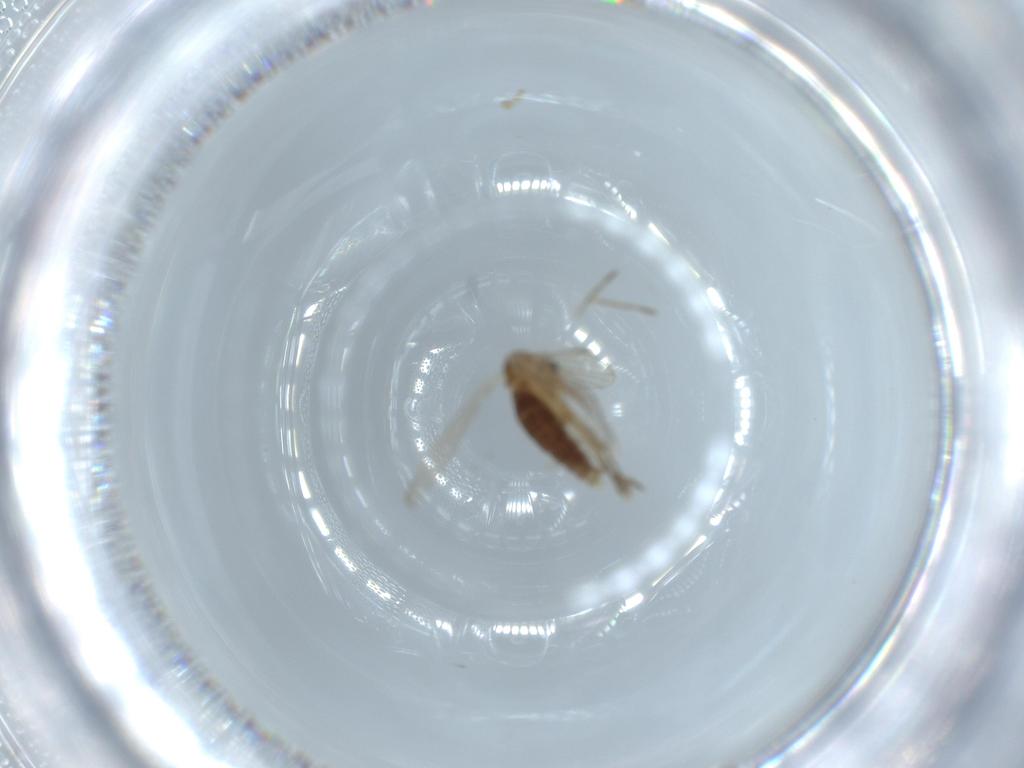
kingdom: Animalia
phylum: Arthropoda
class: Insecta
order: Diptera
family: Psychodidae
